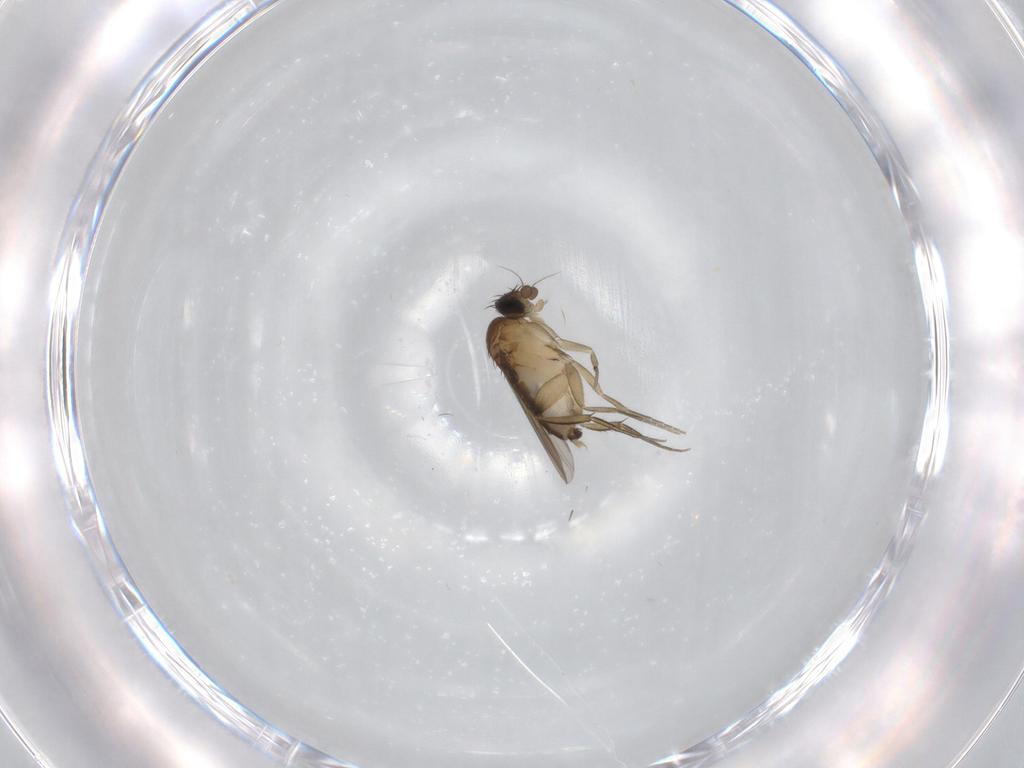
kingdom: Animalia
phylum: Arthropoda
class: Insecta
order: Diptera
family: Phoridae
